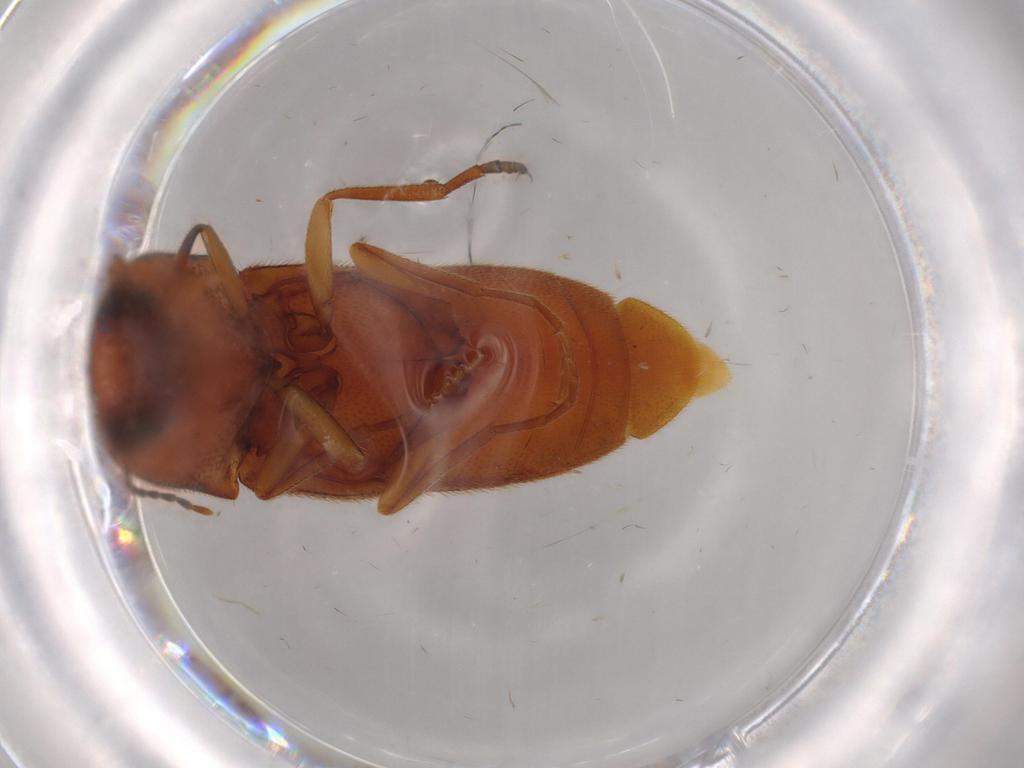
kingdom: Animalia
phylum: Arthropoda
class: Insecta
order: Coleoptera
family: Elateridae
